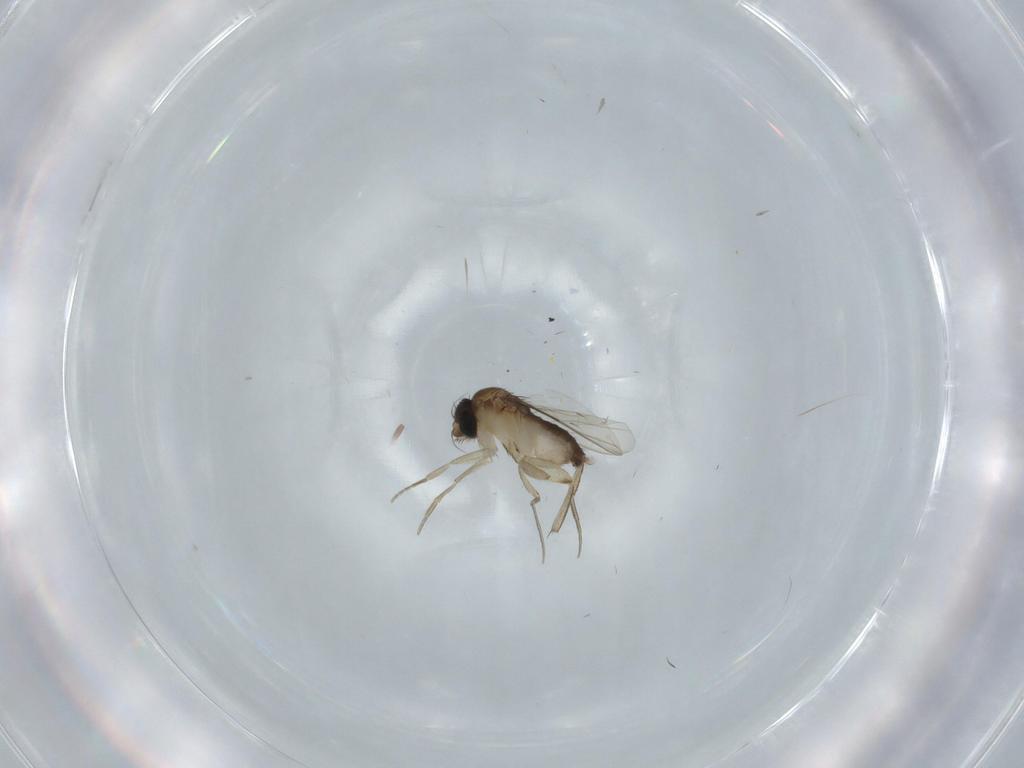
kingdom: Animalia
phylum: Arthropoda
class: Insecta
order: Diptera
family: Phoridae
